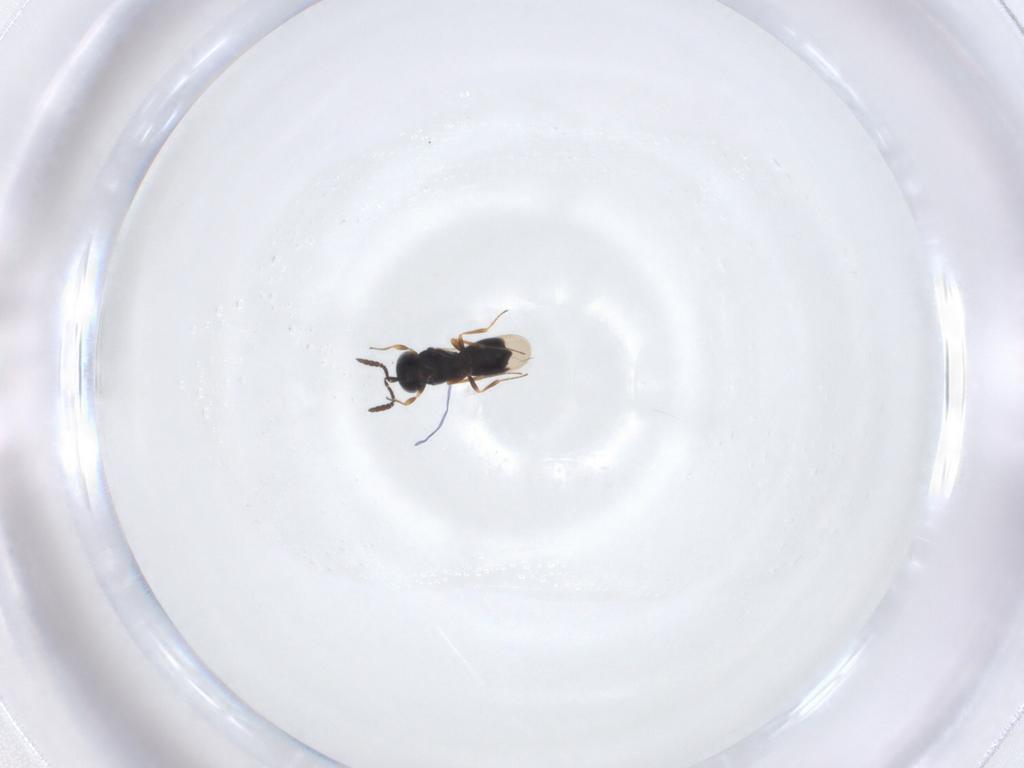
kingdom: Animalia
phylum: Arthropoda
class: Insecta
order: Hymenoptera
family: Scelionidae
